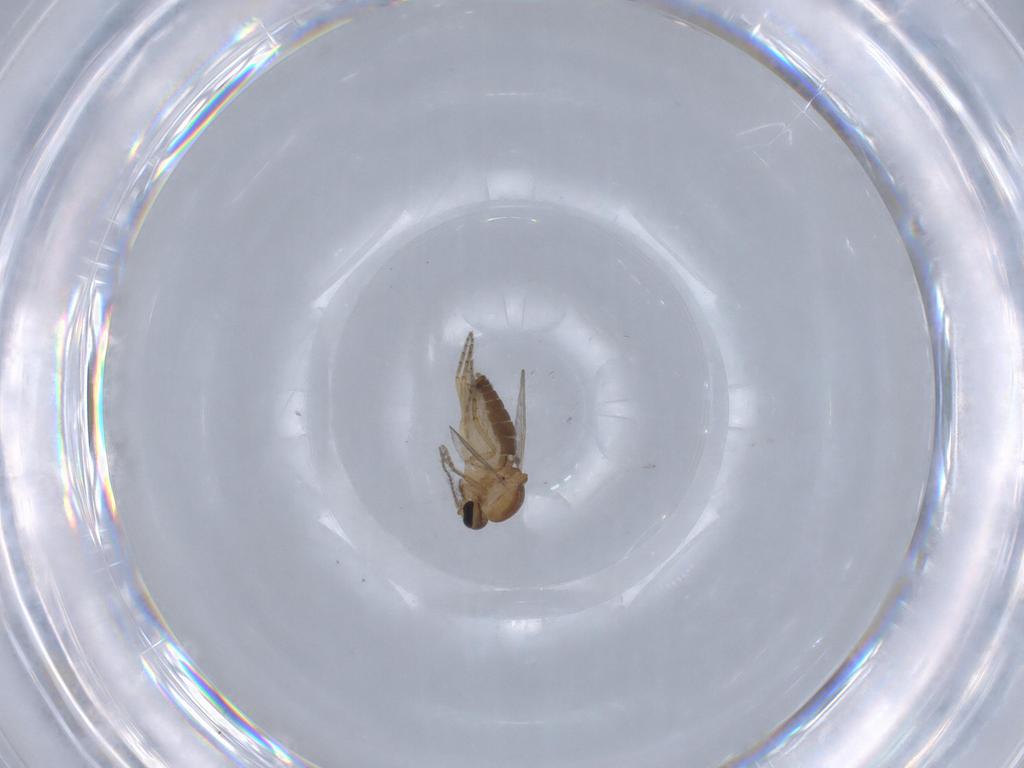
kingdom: Animalia
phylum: Arthropoda
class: Insecta
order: Diptera
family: Ceratopogonidae
